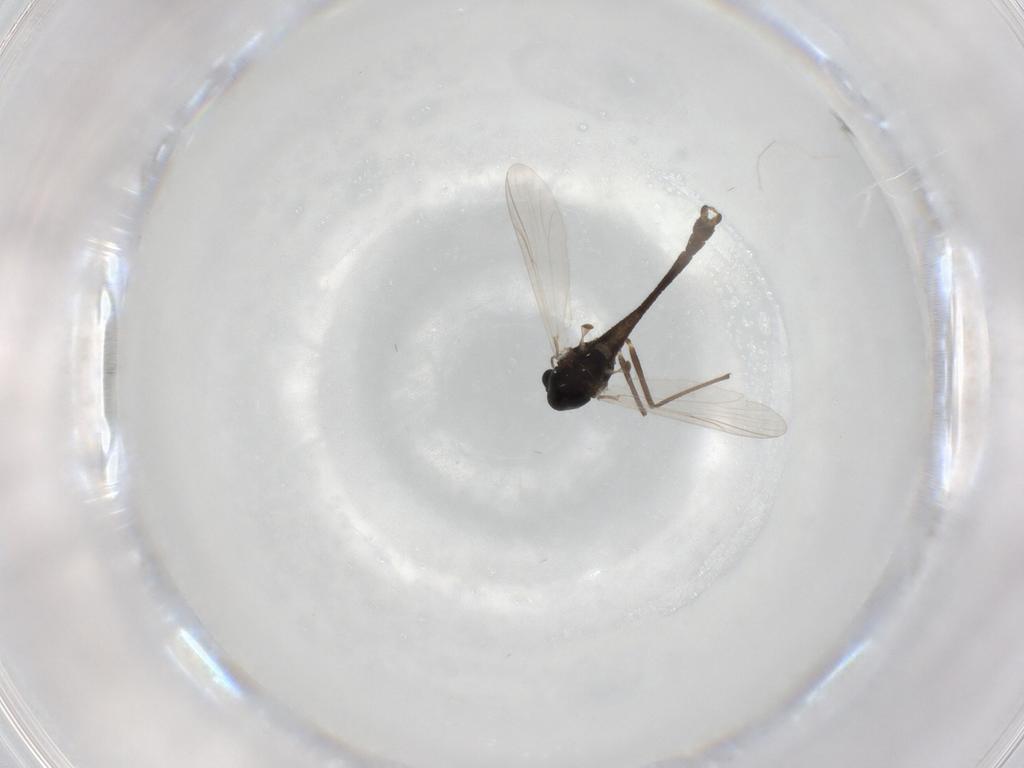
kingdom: Animalia
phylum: Arthropoda
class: Insecta
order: Diptera
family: Chironomidae
